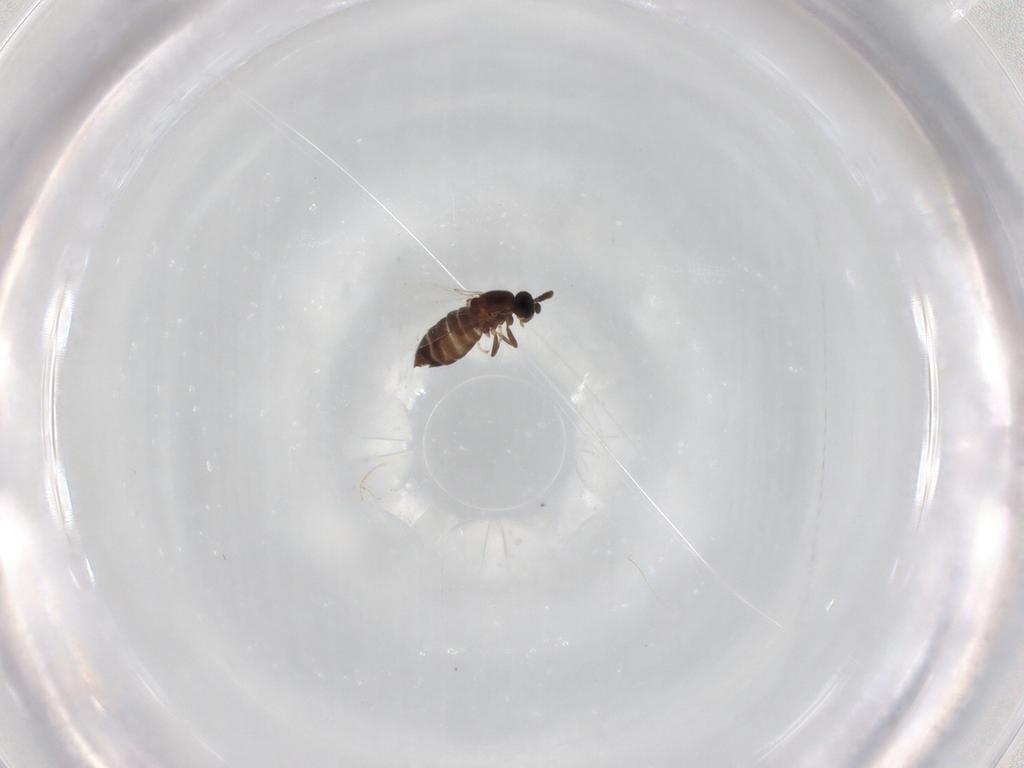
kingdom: Animalia
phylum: Arthropoda
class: Insecta
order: Diptera
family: Scatopsidae
